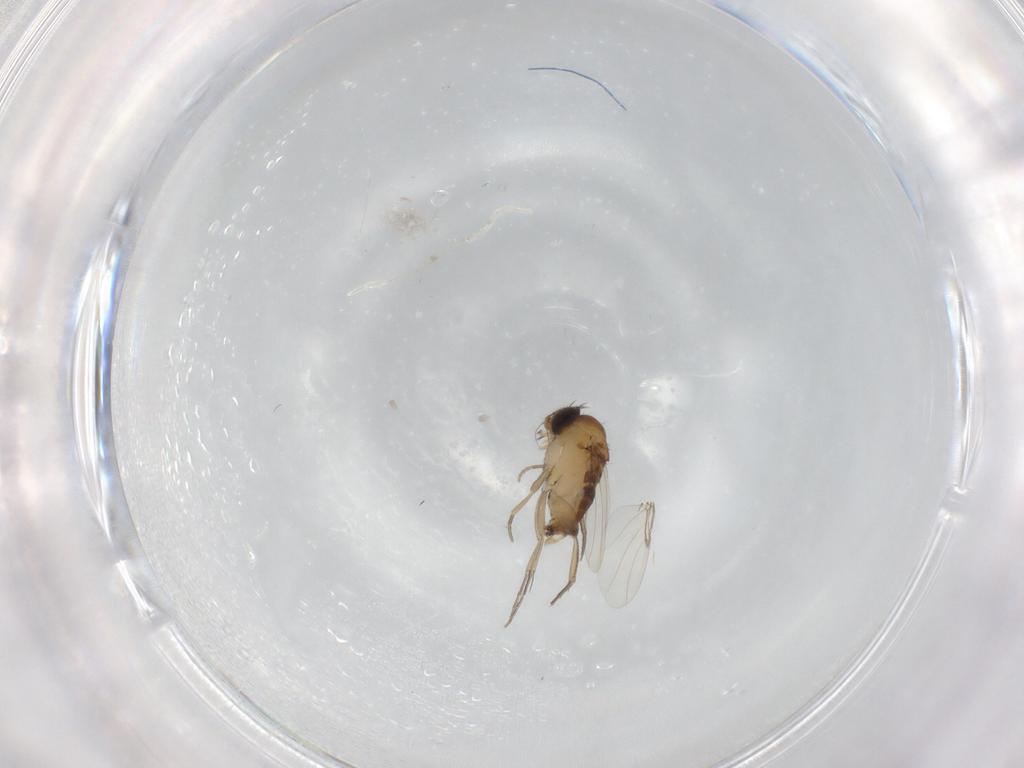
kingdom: Animalia
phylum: Arthropoda
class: Insecta
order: Diptera
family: Phoridae
